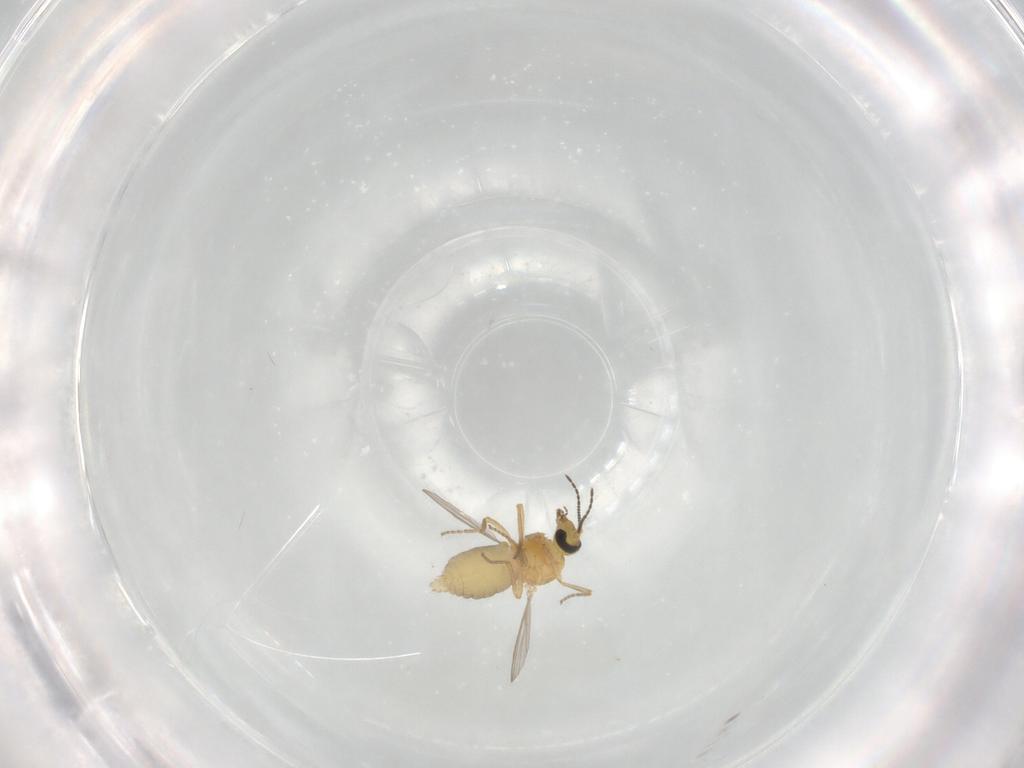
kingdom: Animalia
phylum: Arthropoda
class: Insecta
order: Diptera
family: Ceratopogonidae
